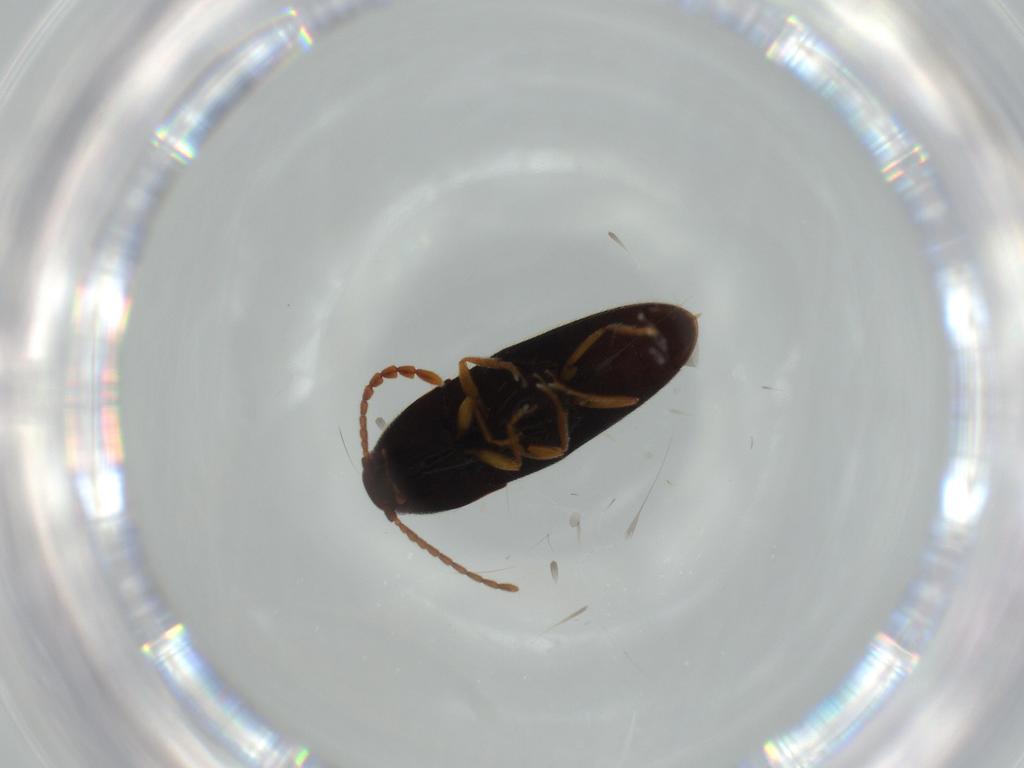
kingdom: Animalia
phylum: Arthropoda
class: Insecta
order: Coleoptera
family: Elateridae
